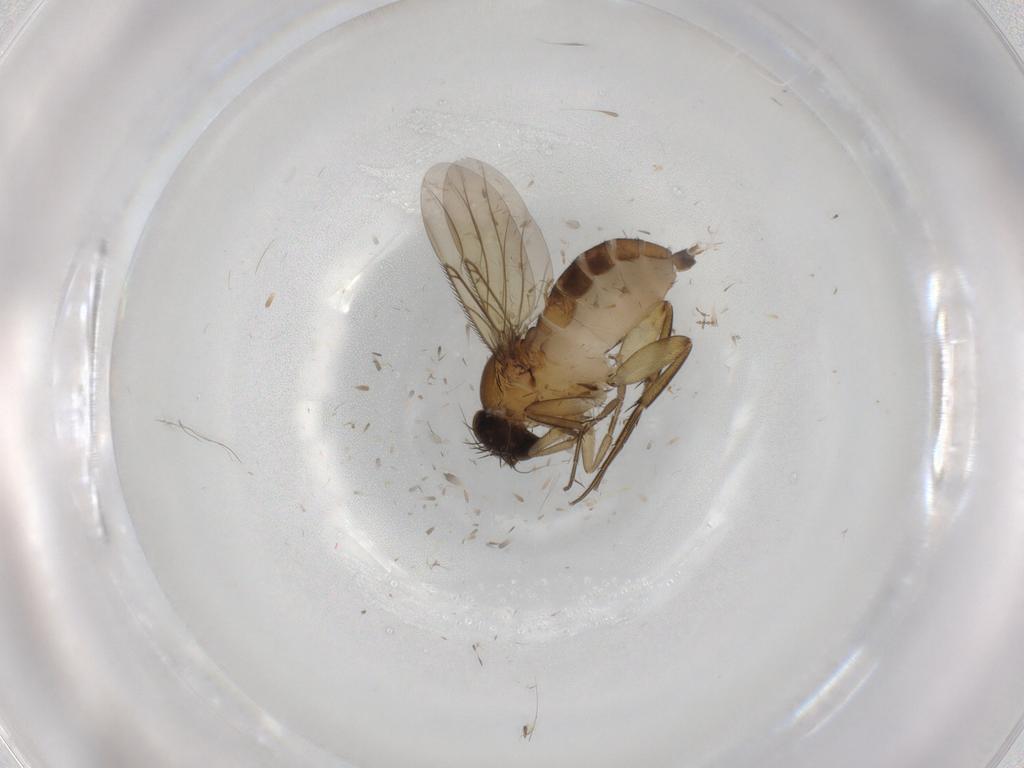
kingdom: Animalia
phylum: Arthropoda
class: Insecta
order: Diptera
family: Phoridae
